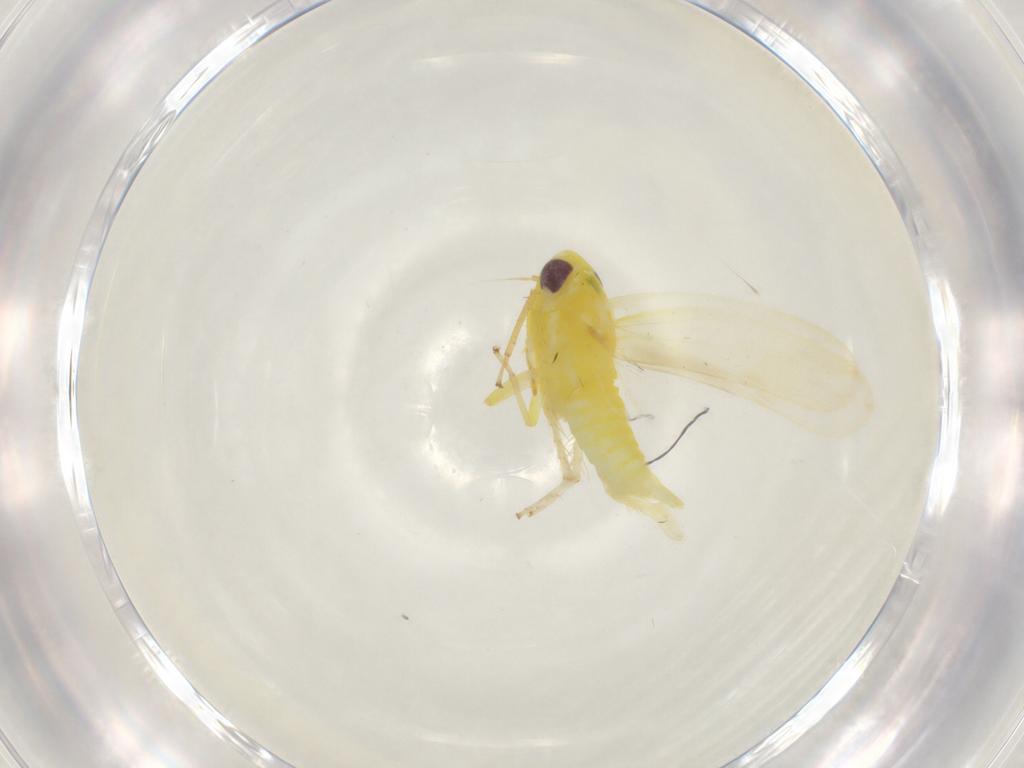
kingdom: Animalia
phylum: Arthropoda
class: Insecta
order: Hemiptera
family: Cicadellidae
